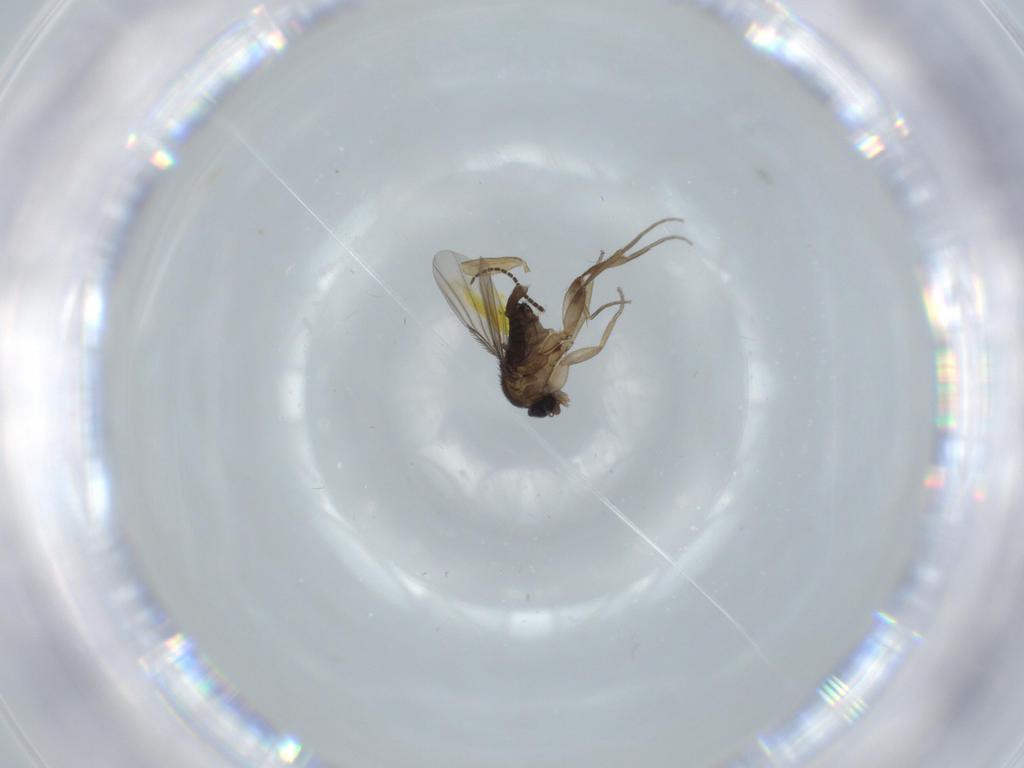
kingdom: Animalia
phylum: Arthropoda
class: Insecta
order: Diptera
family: Phoridae
